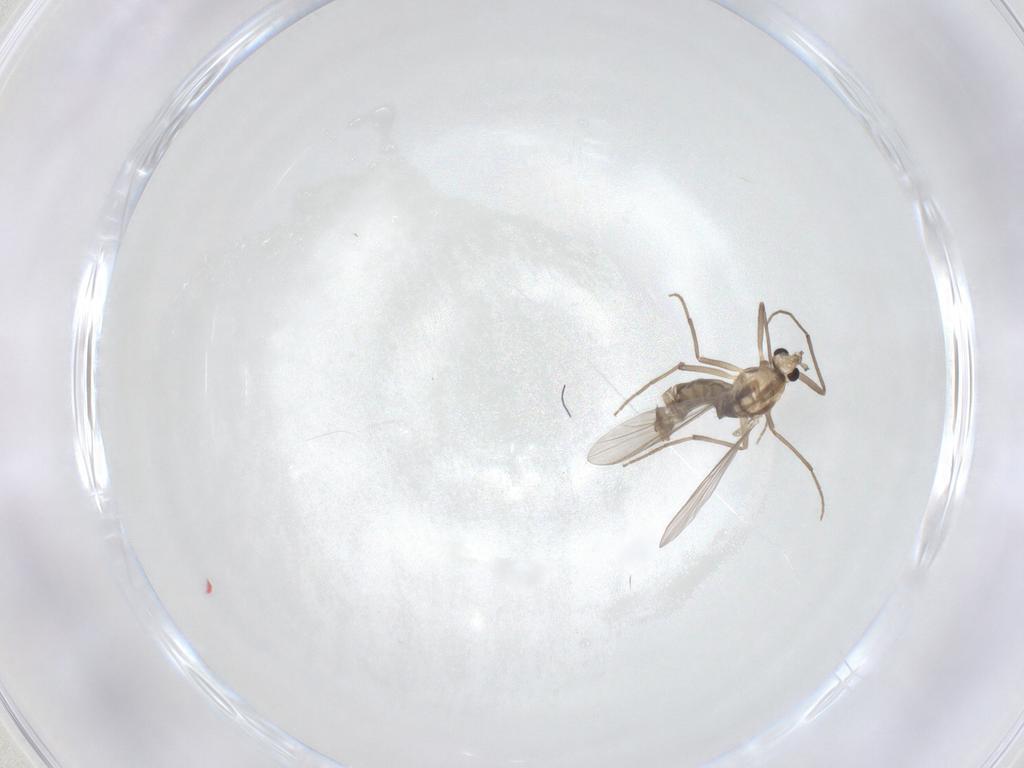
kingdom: Animalia
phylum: Arthropoda
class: Insecta
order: Diptera
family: Chironomidae
